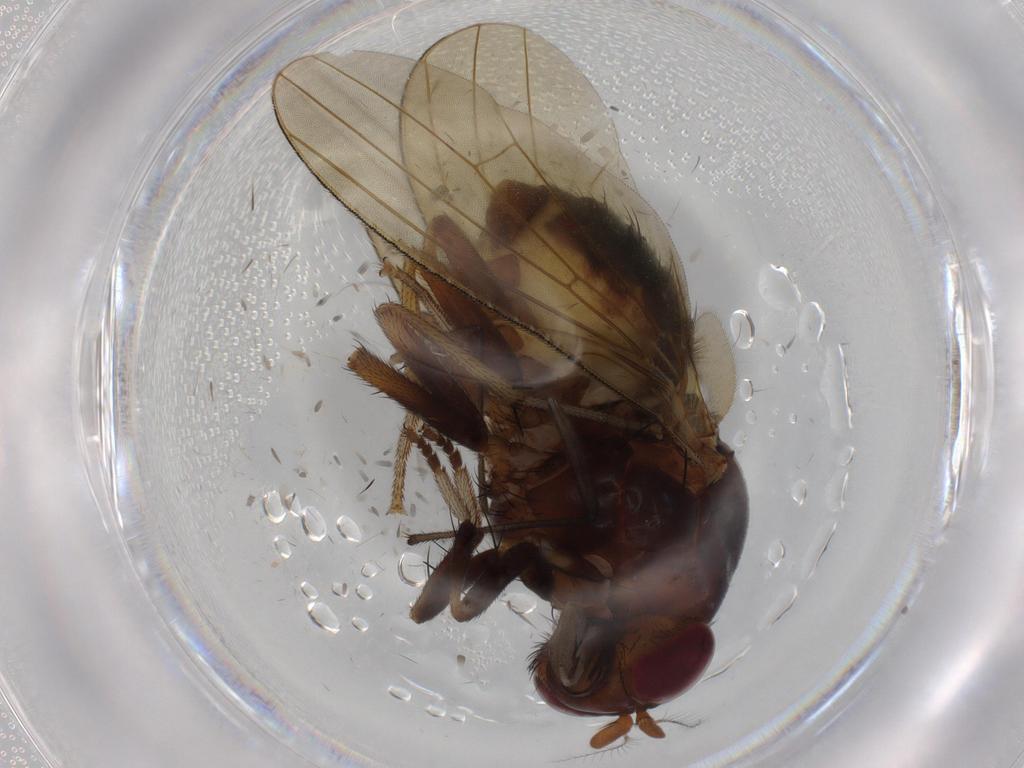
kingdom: Animalia
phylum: Arthropoda
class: Insecta
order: Diptera
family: Ditomyiidae
